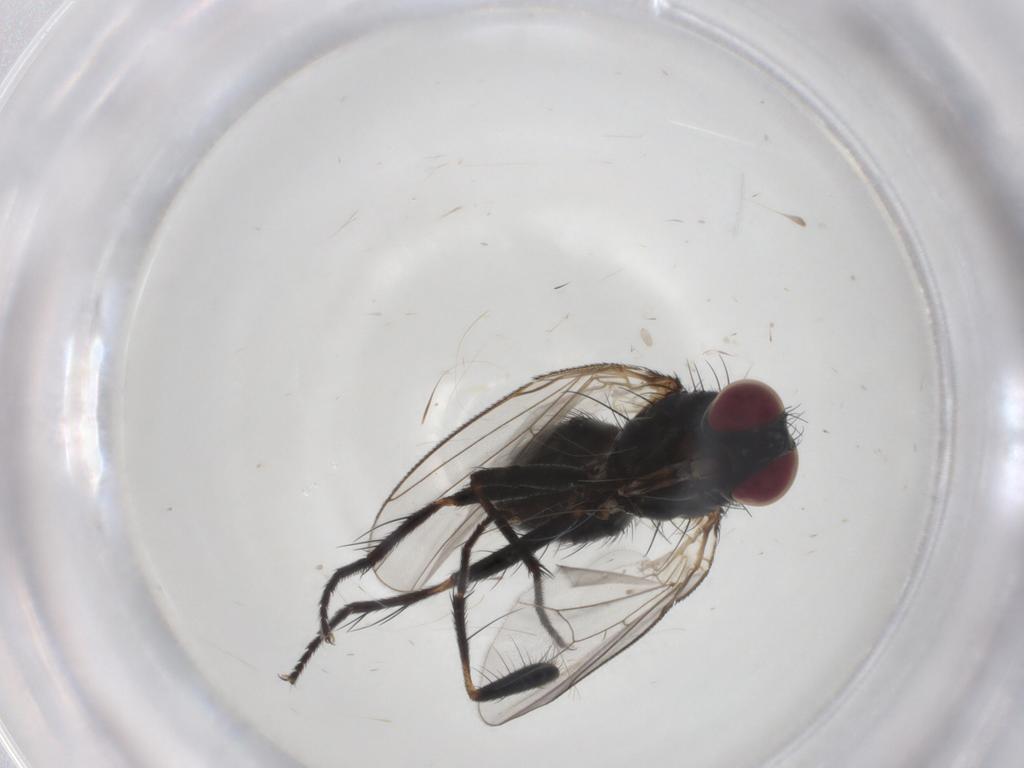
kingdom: Animalia
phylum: Arthropoda
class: Insecta
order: Diptera
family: Muscidae
